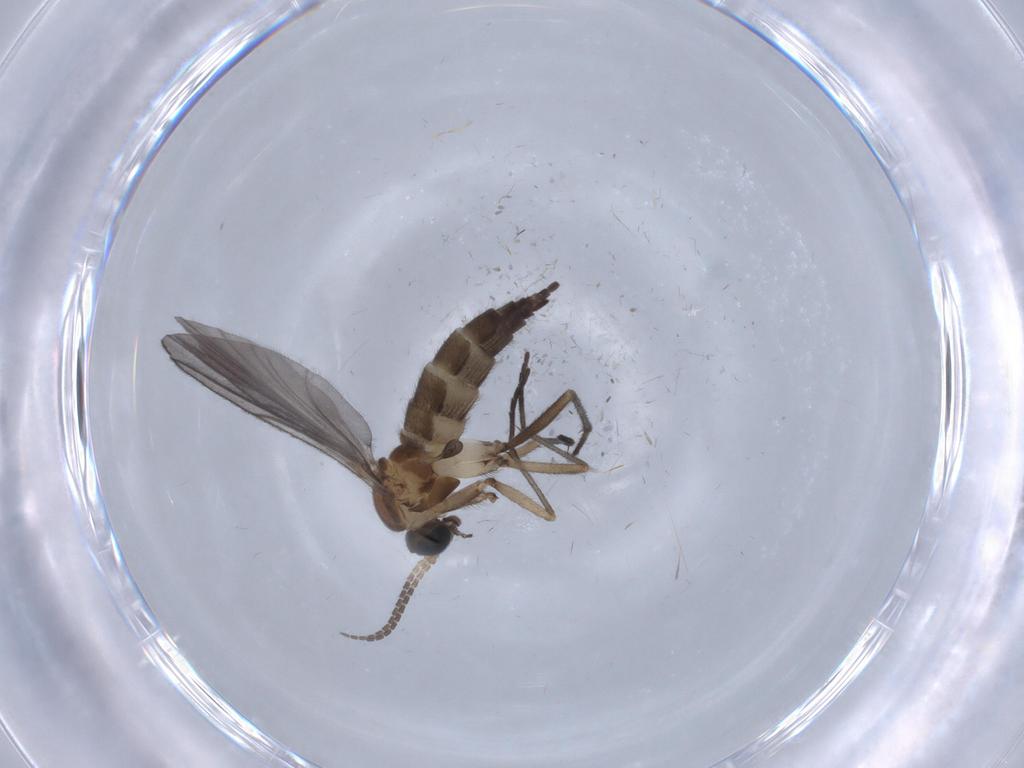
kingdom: Animalia
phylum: Arthropoda
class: Insecta
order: Diptera
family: Sciaridae
